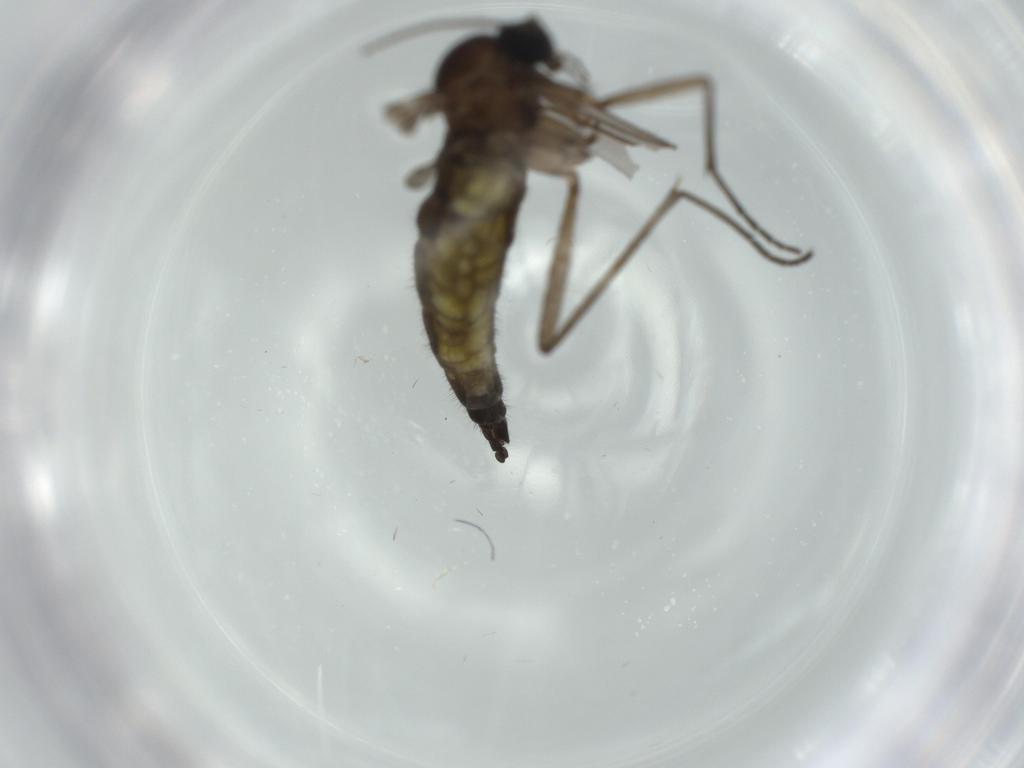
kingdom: Animalia
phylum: Arthropoda
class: Insecta
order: Diptera
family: Sciaridae
